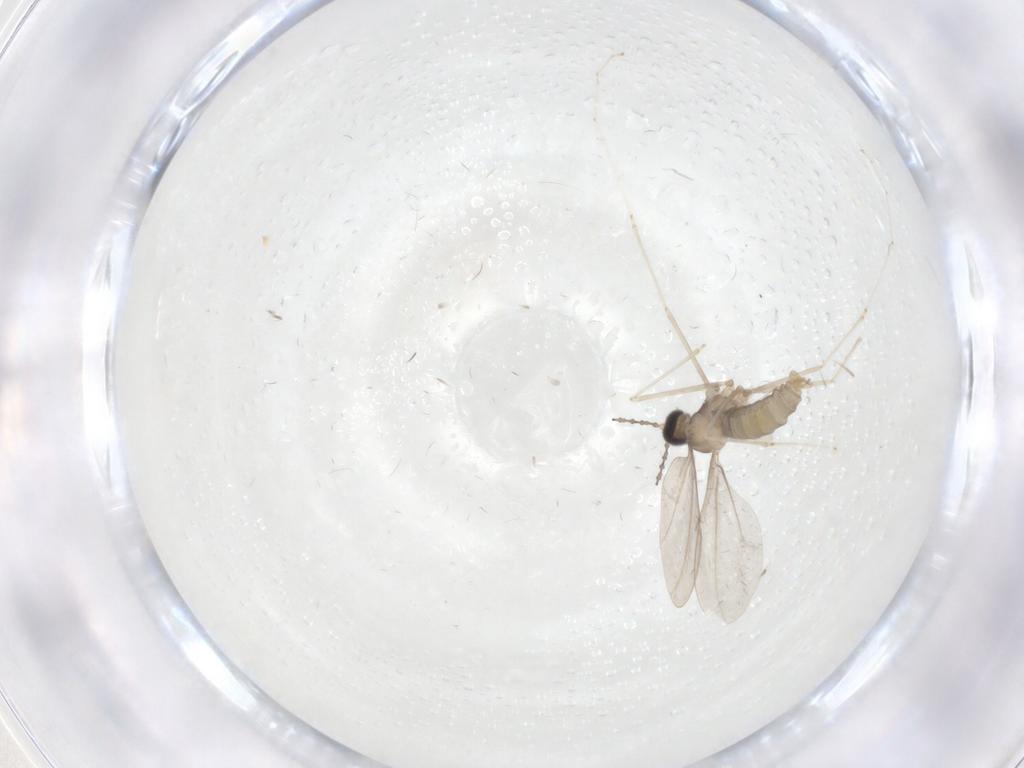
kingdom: Animalia
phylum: Arthropoda
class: Insecta
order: Diptera
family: Cecidomyiidae
